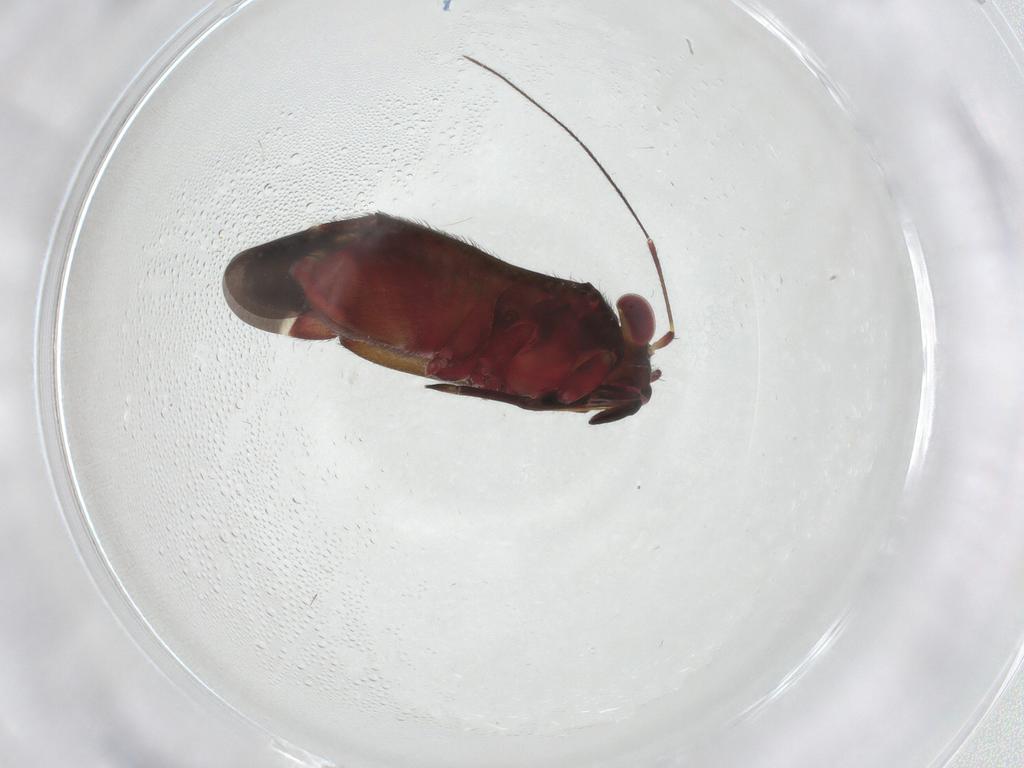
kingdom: Animalia
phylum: Arthropoda
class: Insecta
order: Hemiptera
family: Miridae
